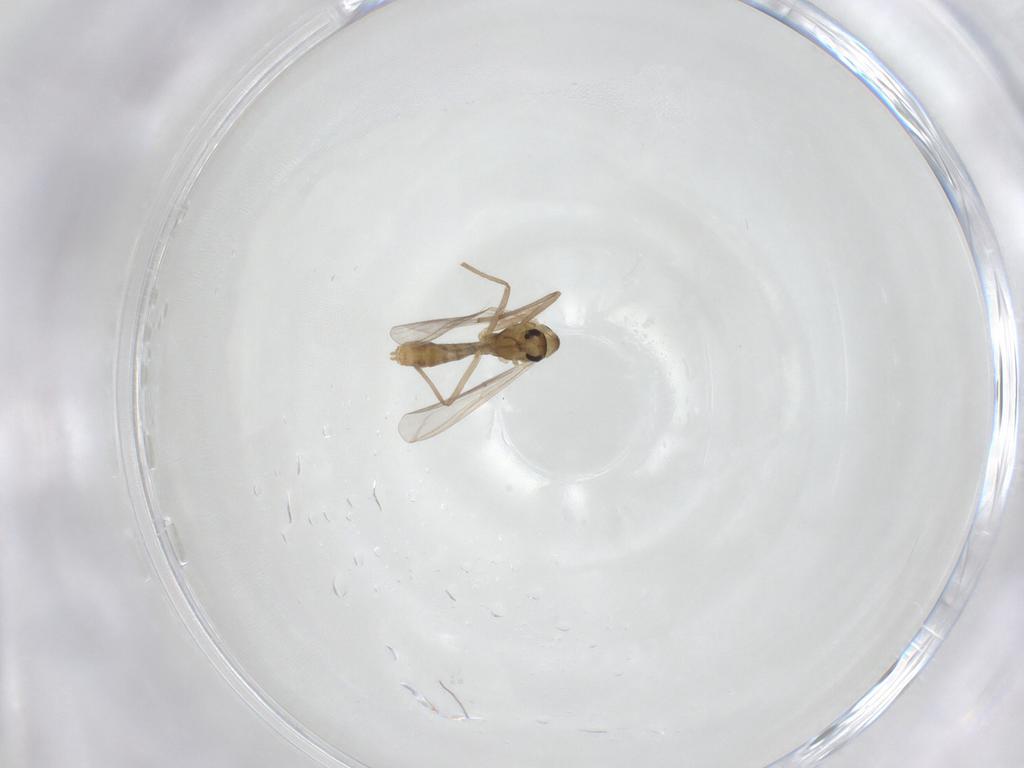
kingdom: Animalia
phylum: Arthropoda
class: Insecta
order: Diptera
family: Chironomidae
